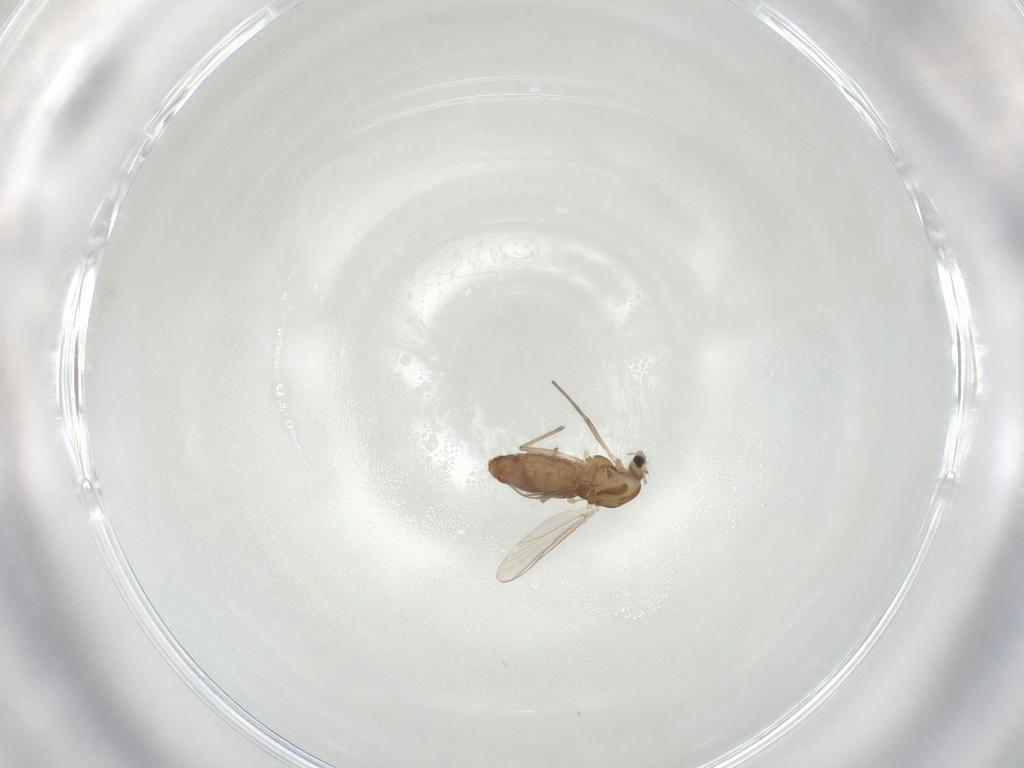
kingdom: Animalia
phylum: Arthropoda
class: Insecta
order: Diptera
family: Chironomidae
